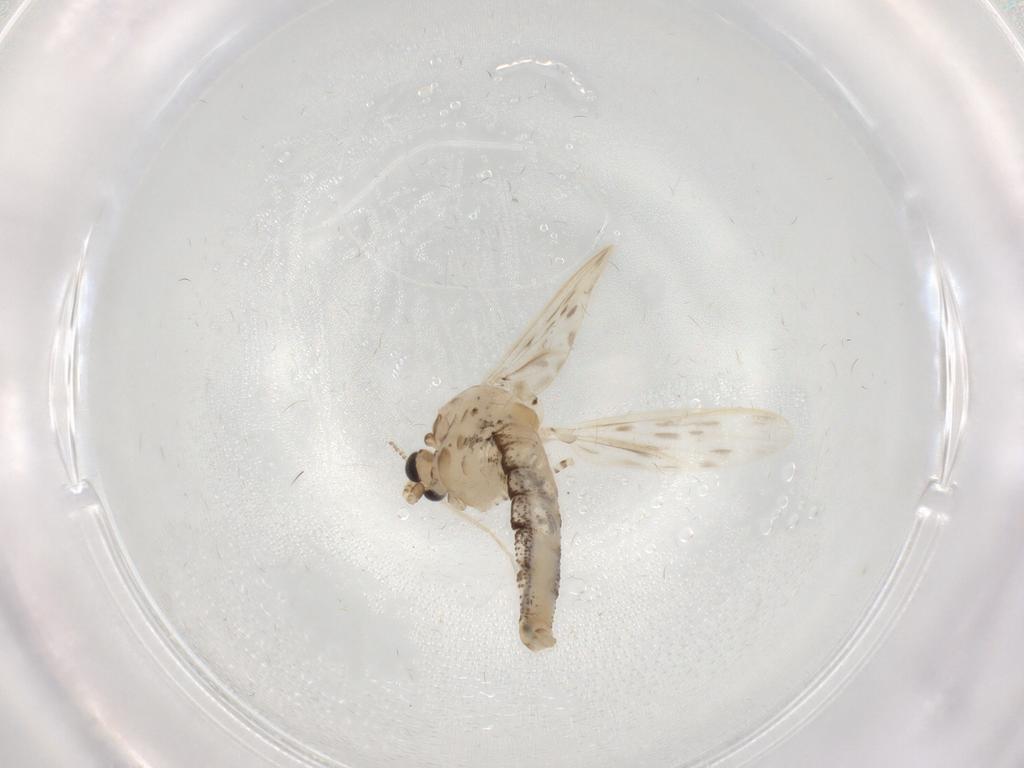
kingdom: Animalia
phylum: Arthropoda
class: Insecta
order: Diptera
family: Chaoboridae
